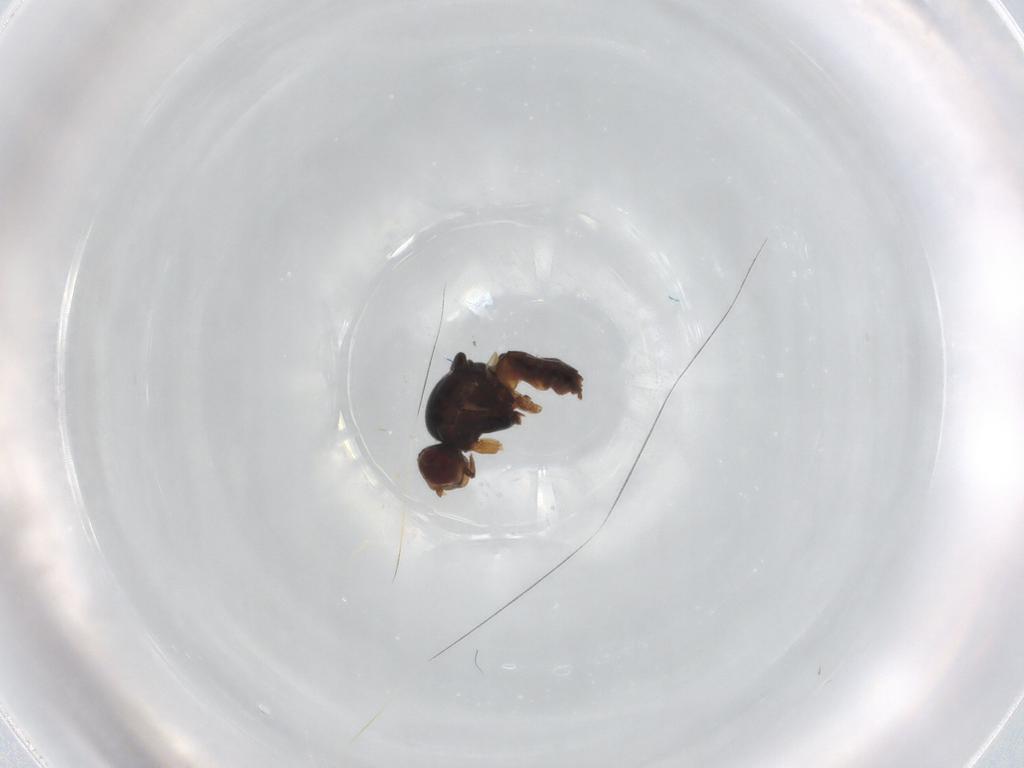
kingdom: Animalia
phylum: Arthropoda
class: Insecta
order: Diptera
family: Chloropidae
